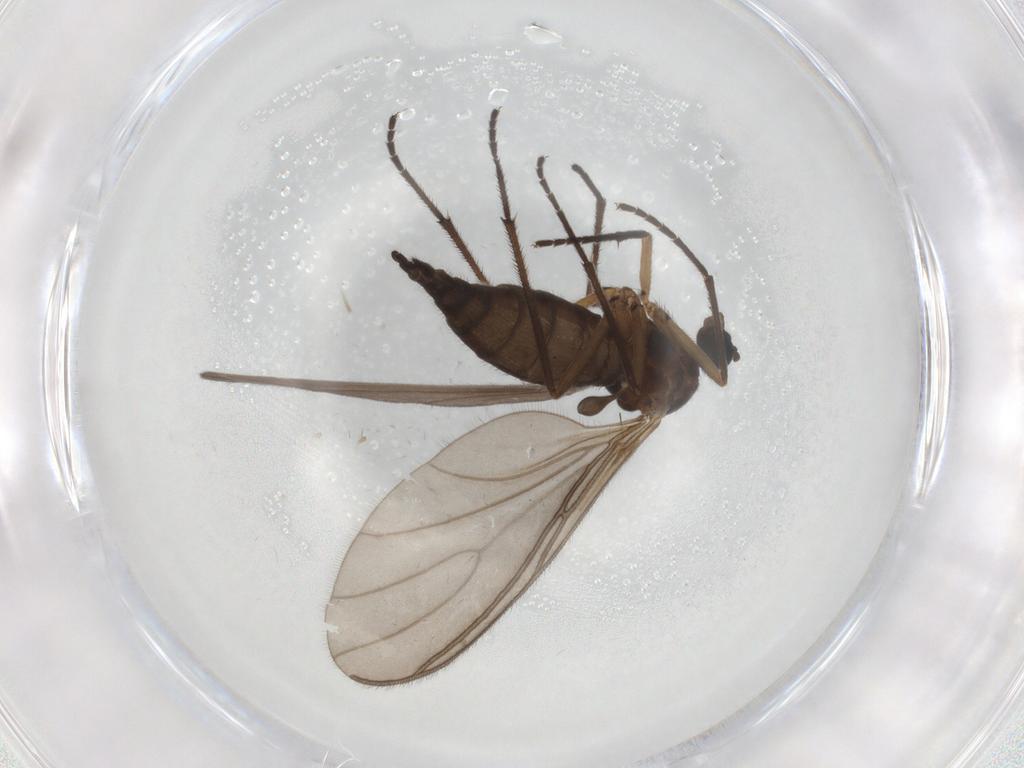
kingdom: Animalia
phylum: Arthropoda
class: Insecta
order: Diptera
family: Sciaridae
